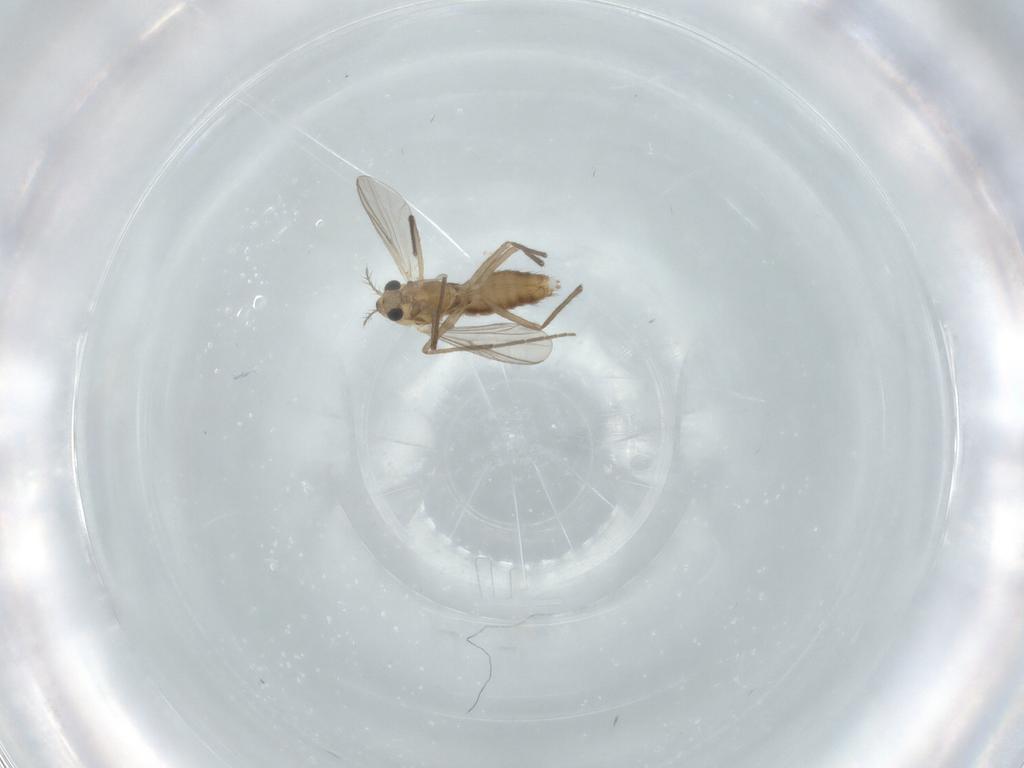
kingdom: Animalia
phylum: Arthropoda
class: Insecta
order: Diptera
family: Chironomidae
